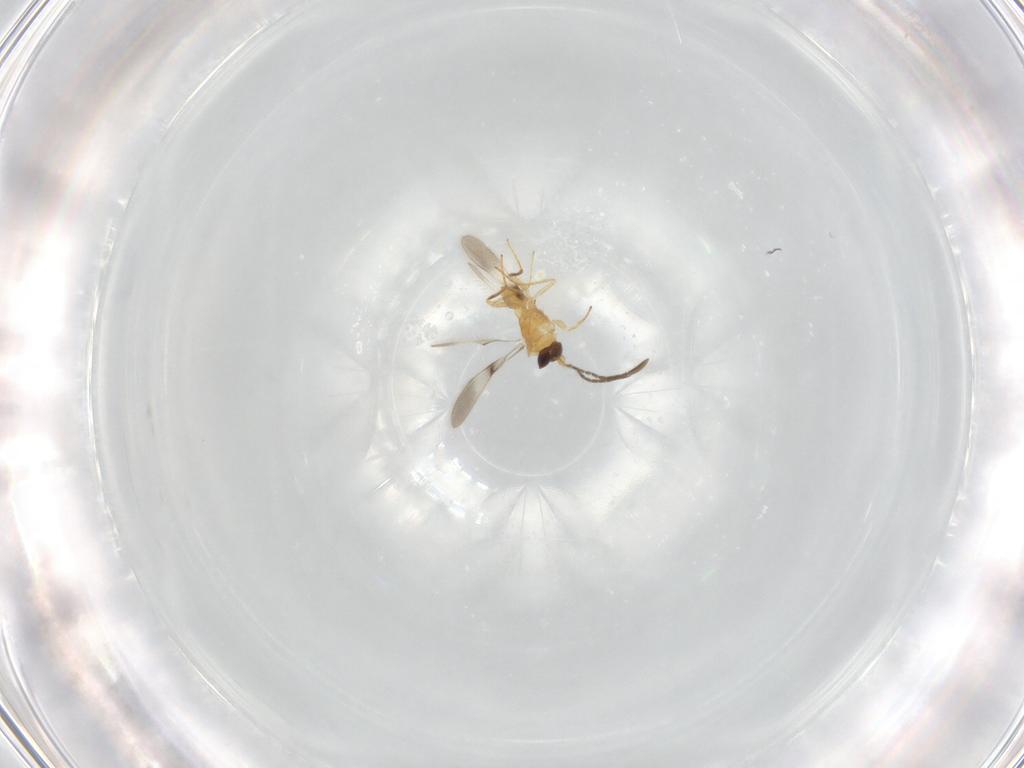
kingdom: Animalia
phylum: Arthropoda
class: Insecta
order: Hymenoptera
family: Mymaridae
